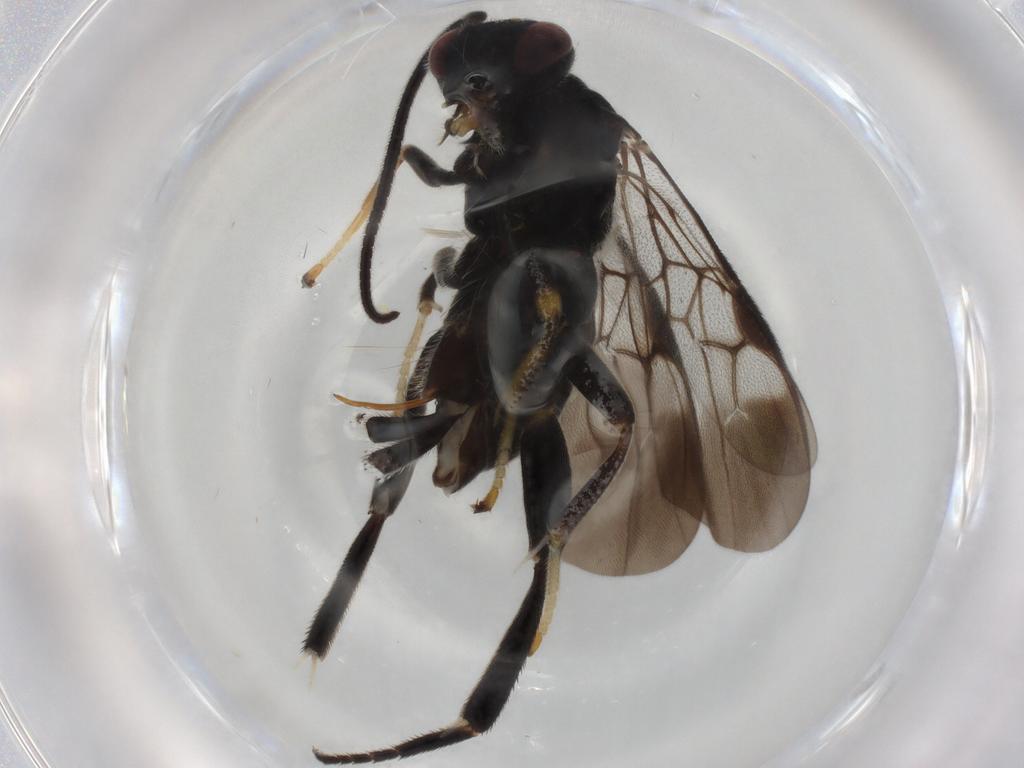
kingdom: Animalia
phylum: Arthropoda
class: Insecta
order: Hymenoptera
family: Braconidae
